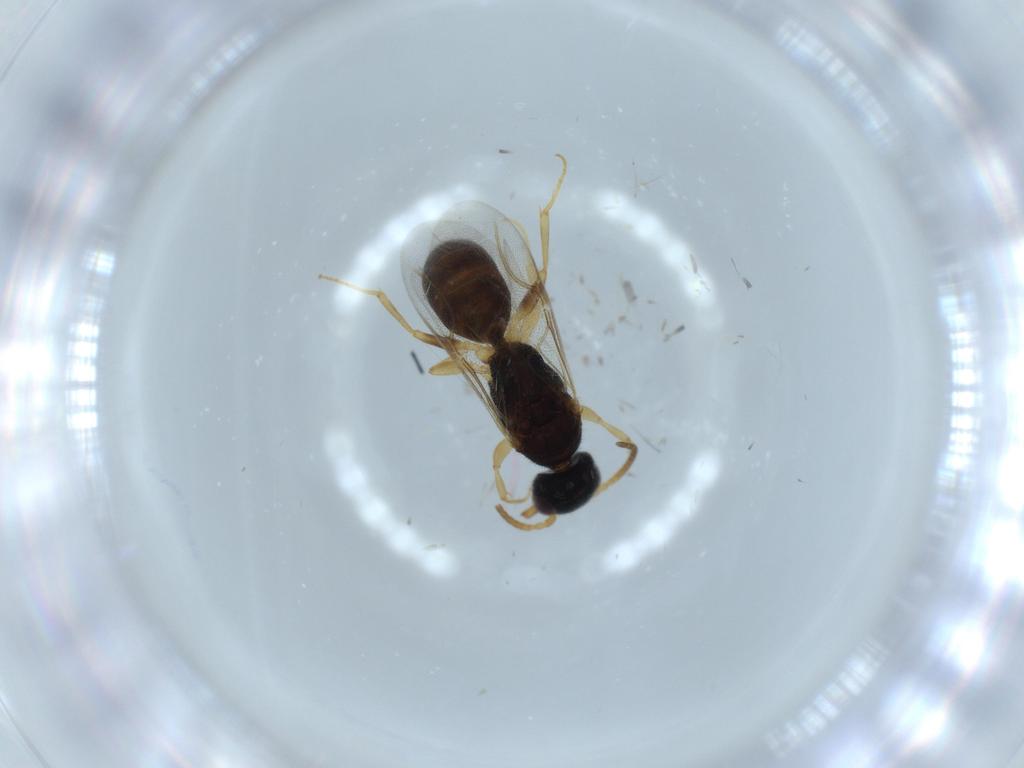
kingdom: Animalia
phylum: Arthropoda
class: Insecta
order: Hymenoptera
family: Bethylidae
